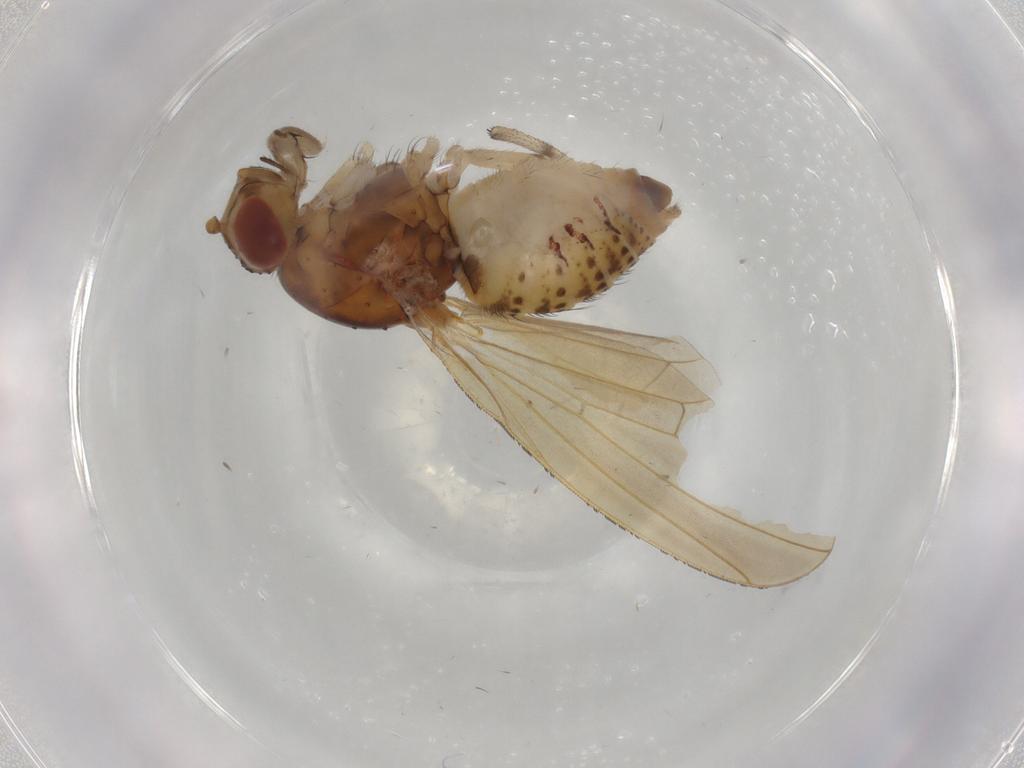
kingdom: Animalia
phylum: Arthropoda
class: Insecta
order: Diptera
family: Lauxaniidae
